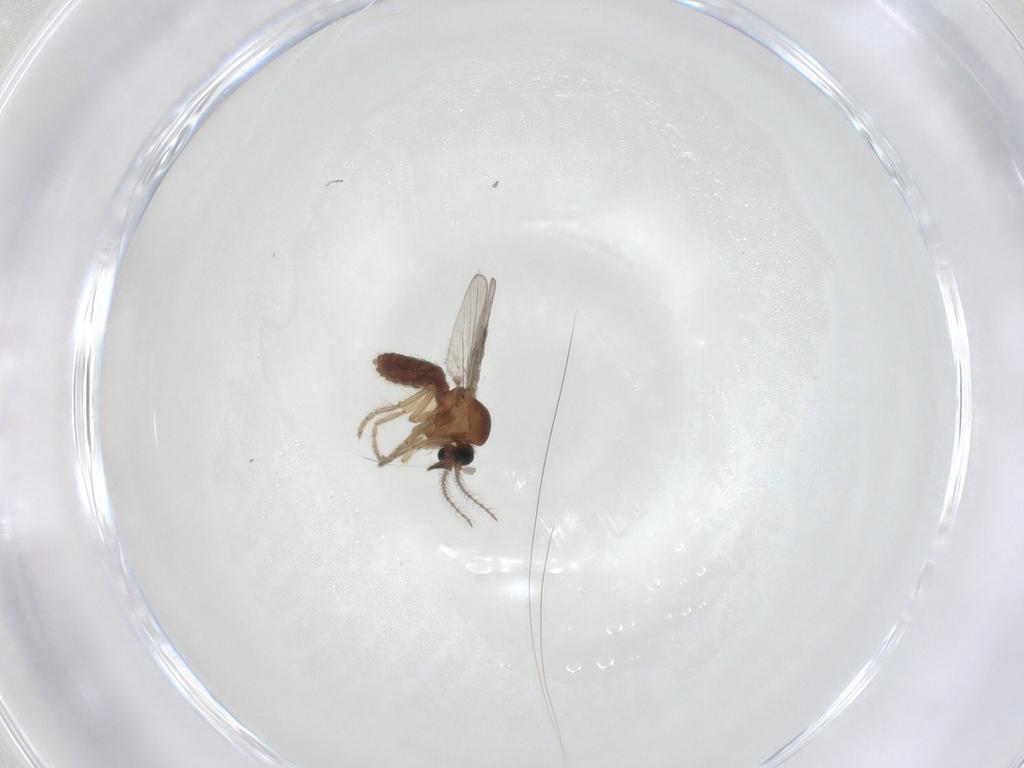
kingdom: Animalia
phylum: Arthropoda
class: Insecta
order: Diptera
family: Ceratopogonidae
